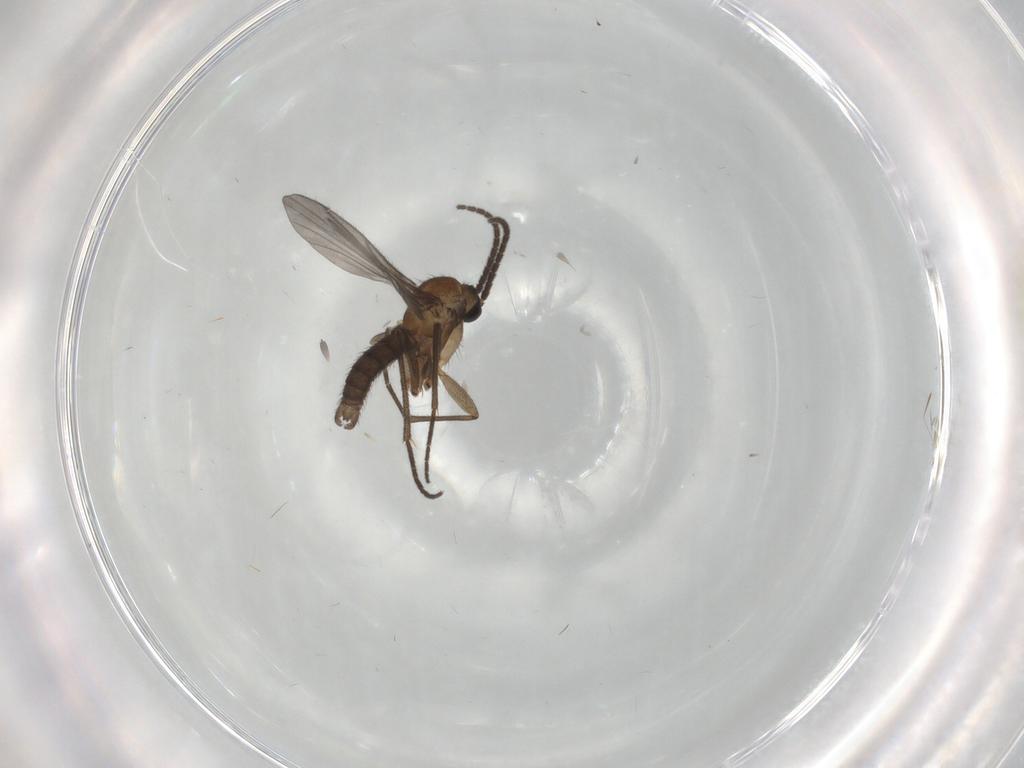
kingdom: Animalia
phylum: Arthropoda
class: Insecta
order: Diptera
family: Sciaridae
